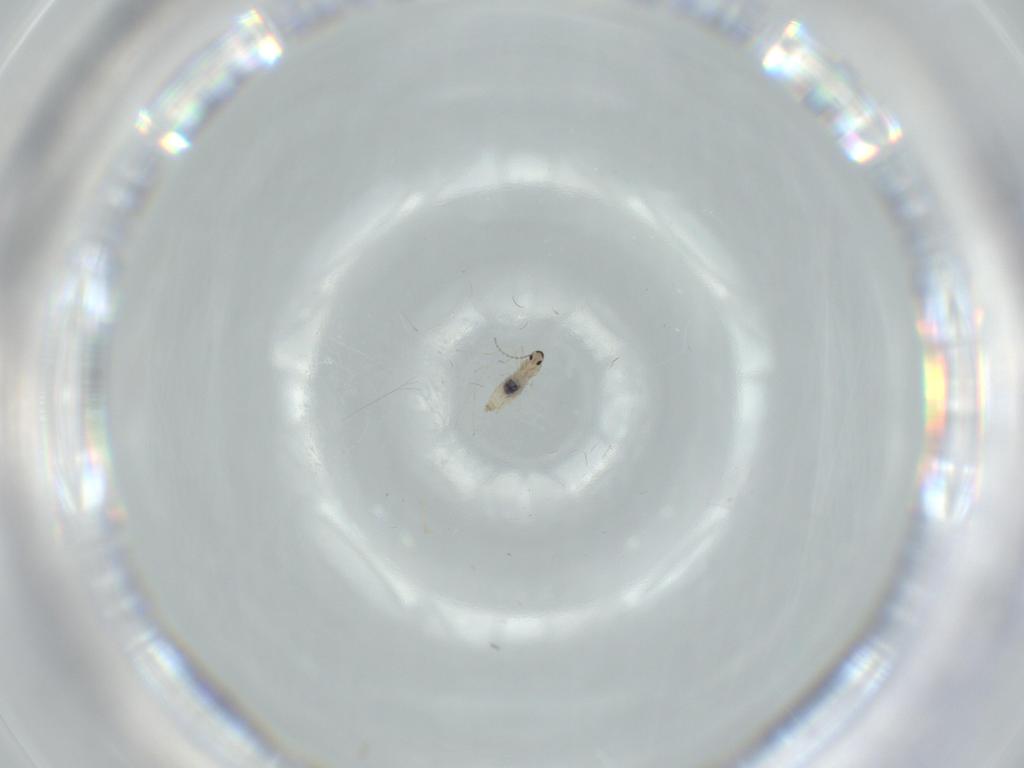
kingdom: Animalia
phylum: Arthropoda
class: Insecta
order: Diptera
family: Cecidomyiidae
